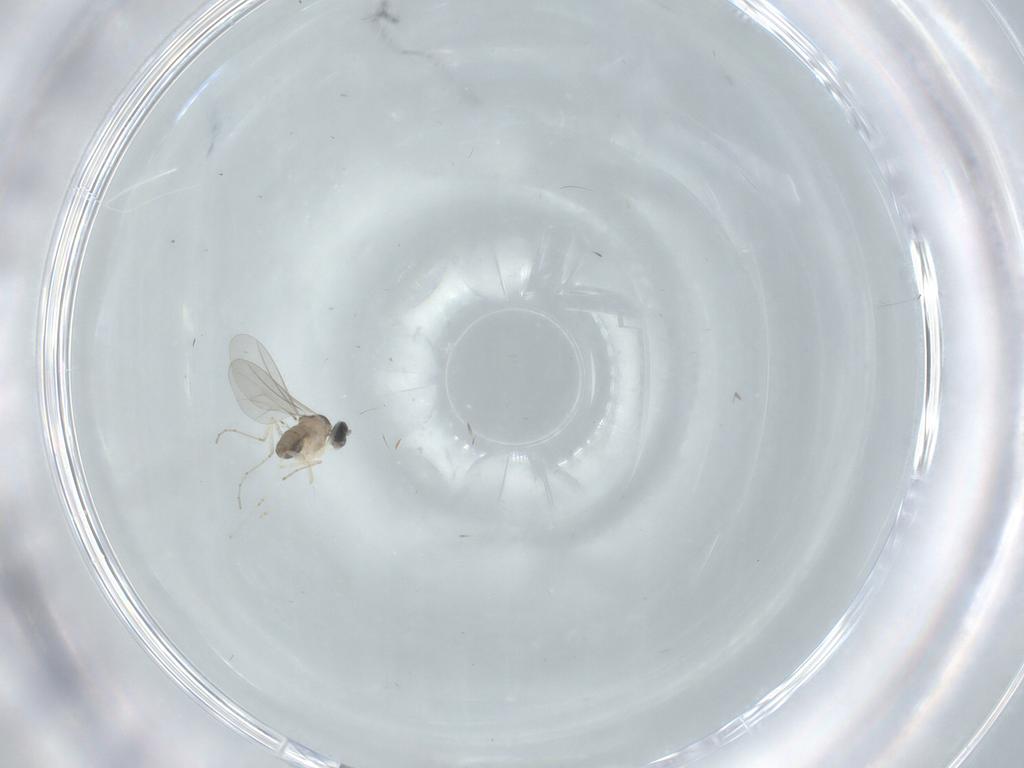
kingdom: Animalia
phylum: Arthropoda
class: Insecta
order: Diptera
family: Cecidomyiidae
